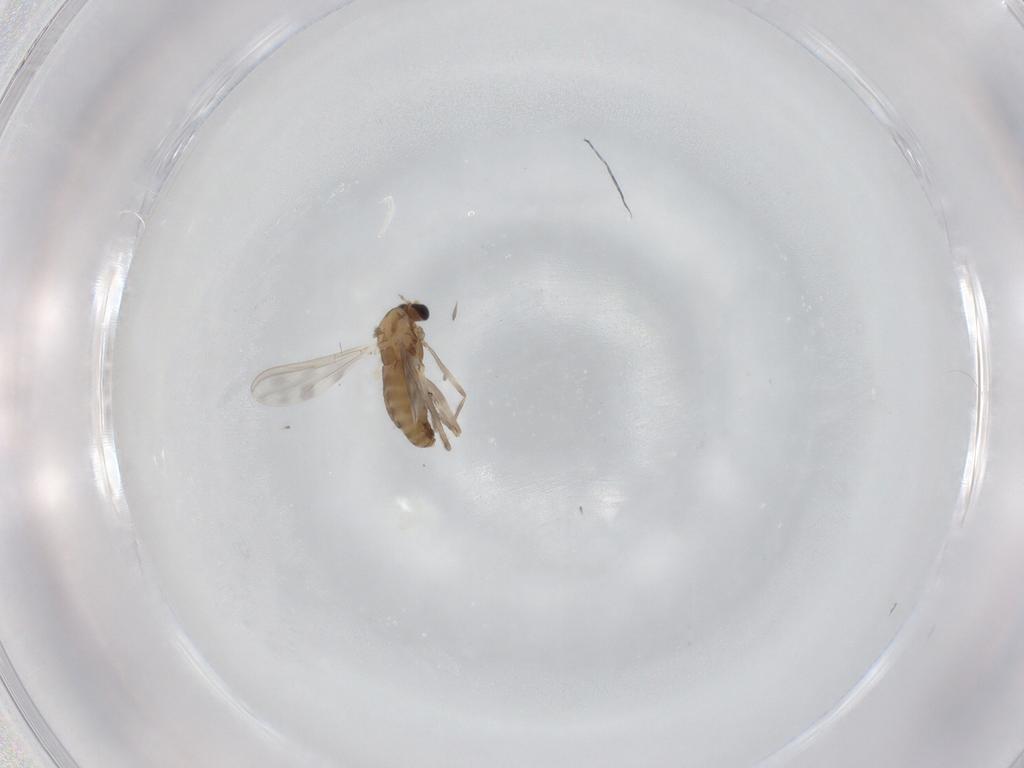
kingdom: Animalia
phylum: Arthropoda
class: Insecta
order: Diptera
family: Chironomidae
